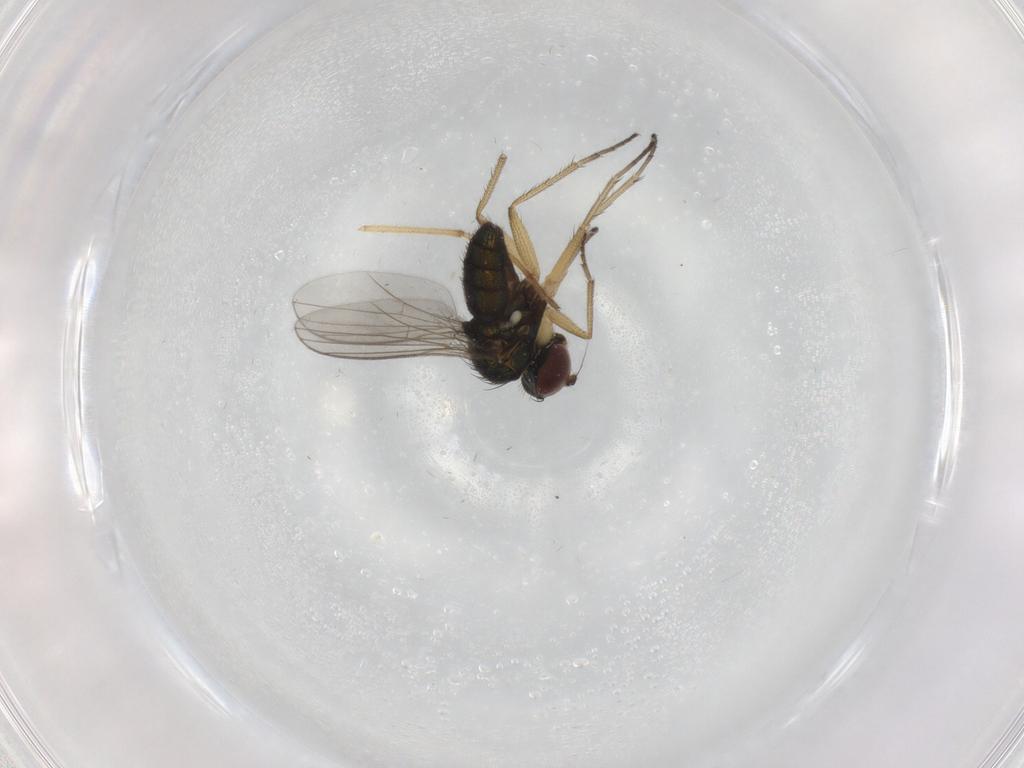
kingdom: Animalia
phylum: Arthropoda
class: Insecta
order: Diptera
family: Dolichopodidae
